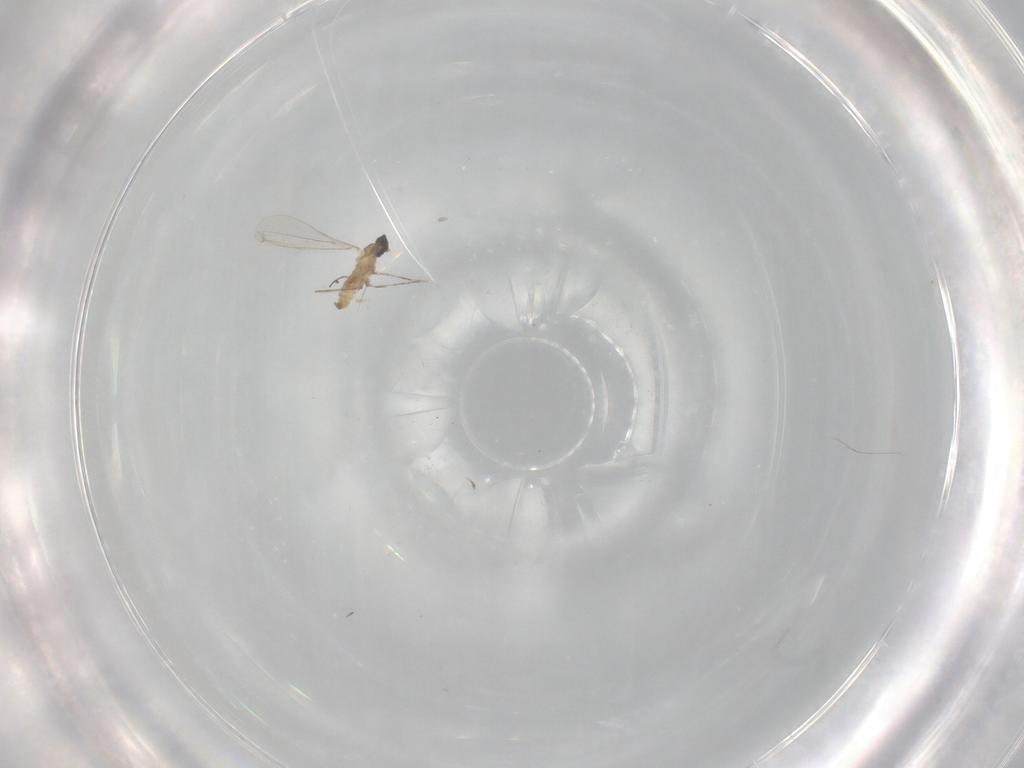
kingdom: Animalia
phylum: Arthropoda
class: Insecta
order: Diptera
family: Cecidomyiidae
